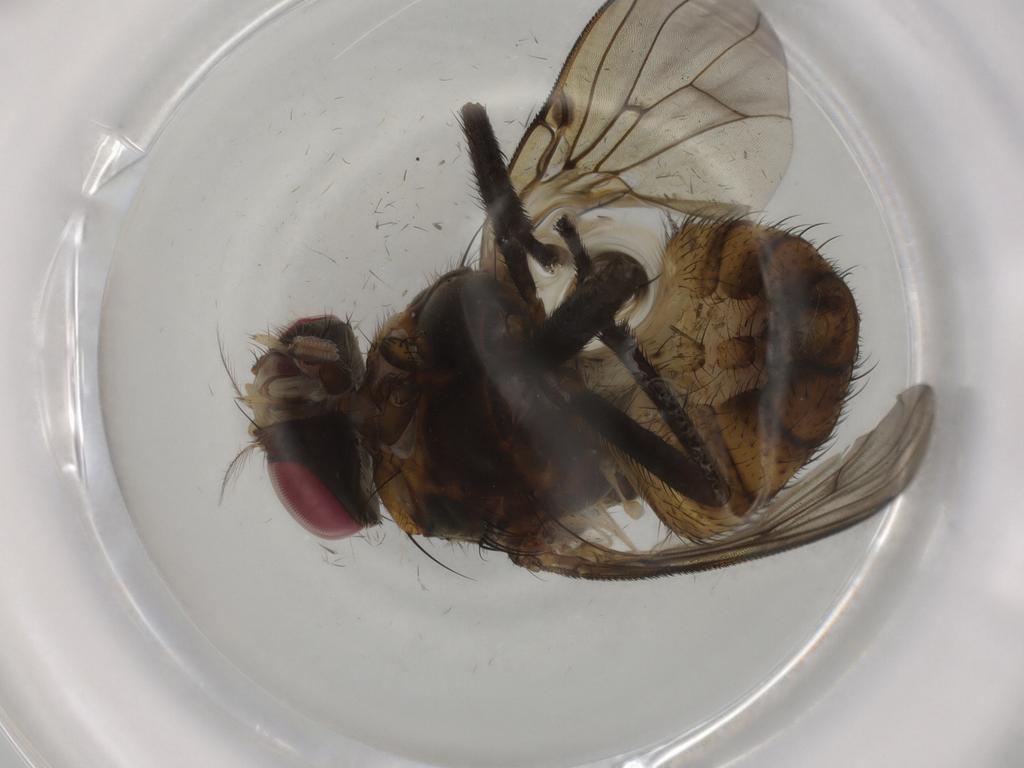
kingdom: Animalia
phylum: Arthropoda
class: Insecta
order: Diptera
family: Muscidae
